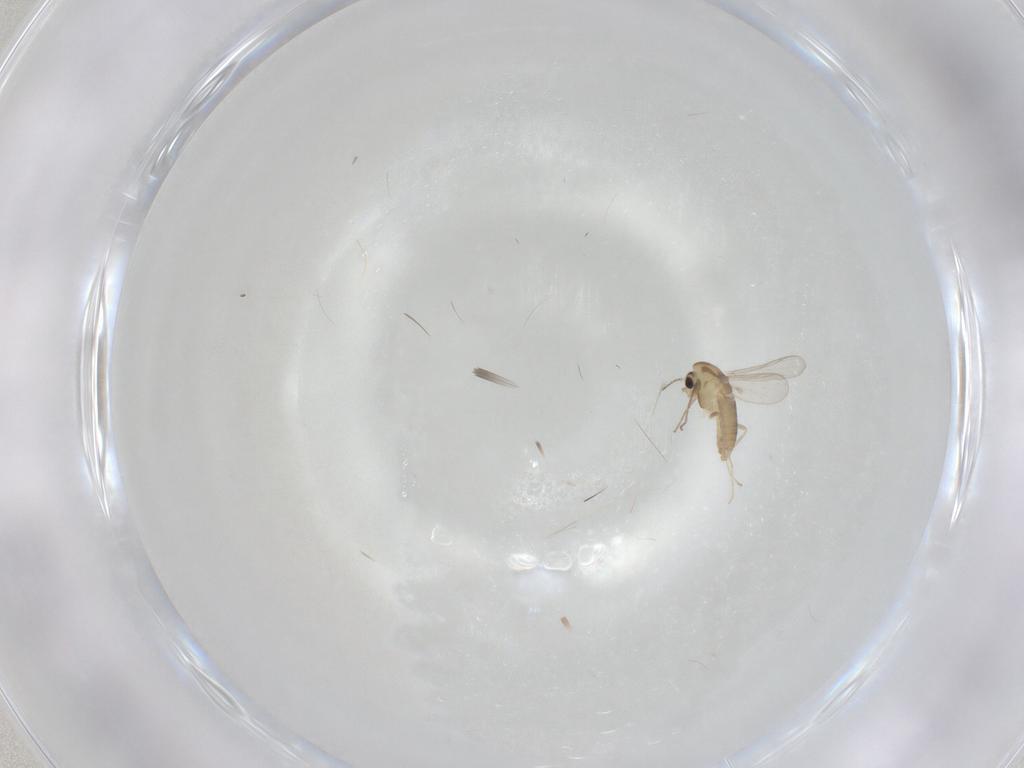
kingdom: Animalia
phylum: Arthropoda
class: Insecta
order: Diptera
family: Chironomidae
